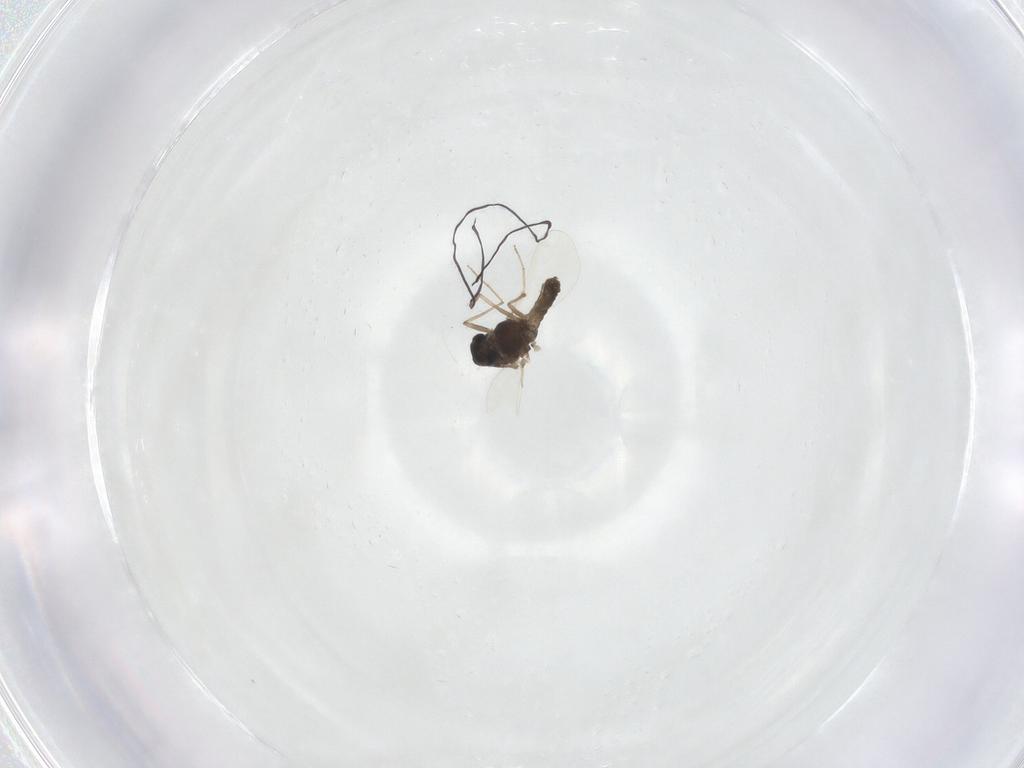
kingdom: Animalia
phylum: Arthropoda
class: Insecta
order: Diptera
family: Chironomidae
